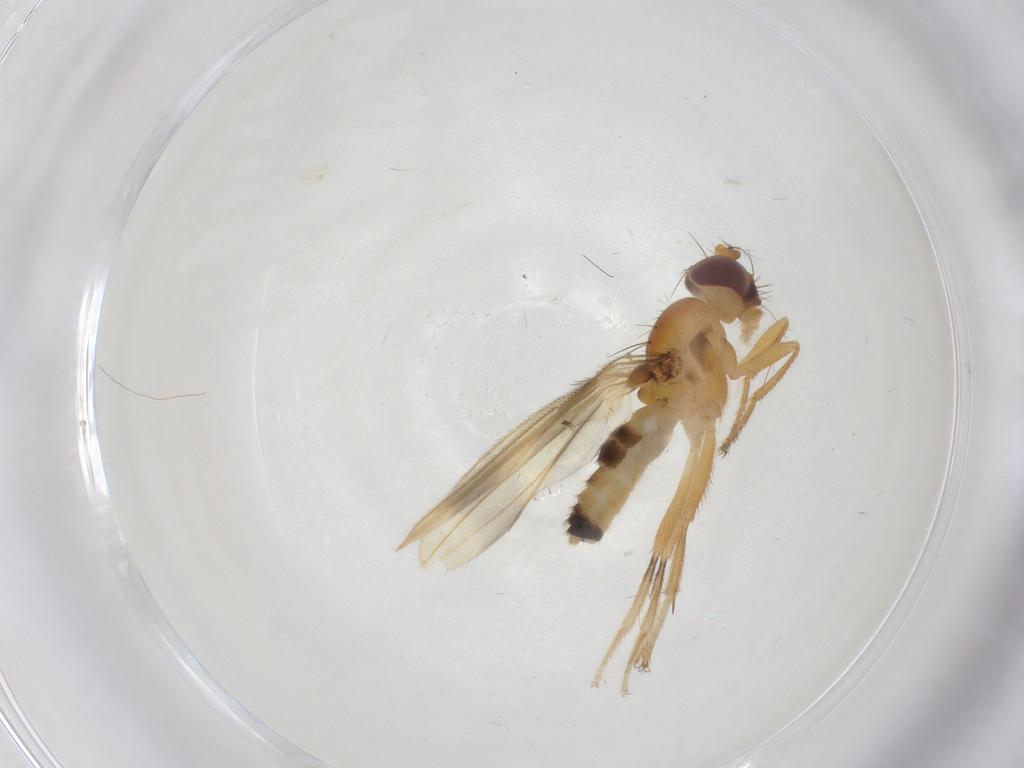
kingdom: Animalia
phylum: Arthropoda
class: Insecta
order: Diptera
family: Periscelididae
